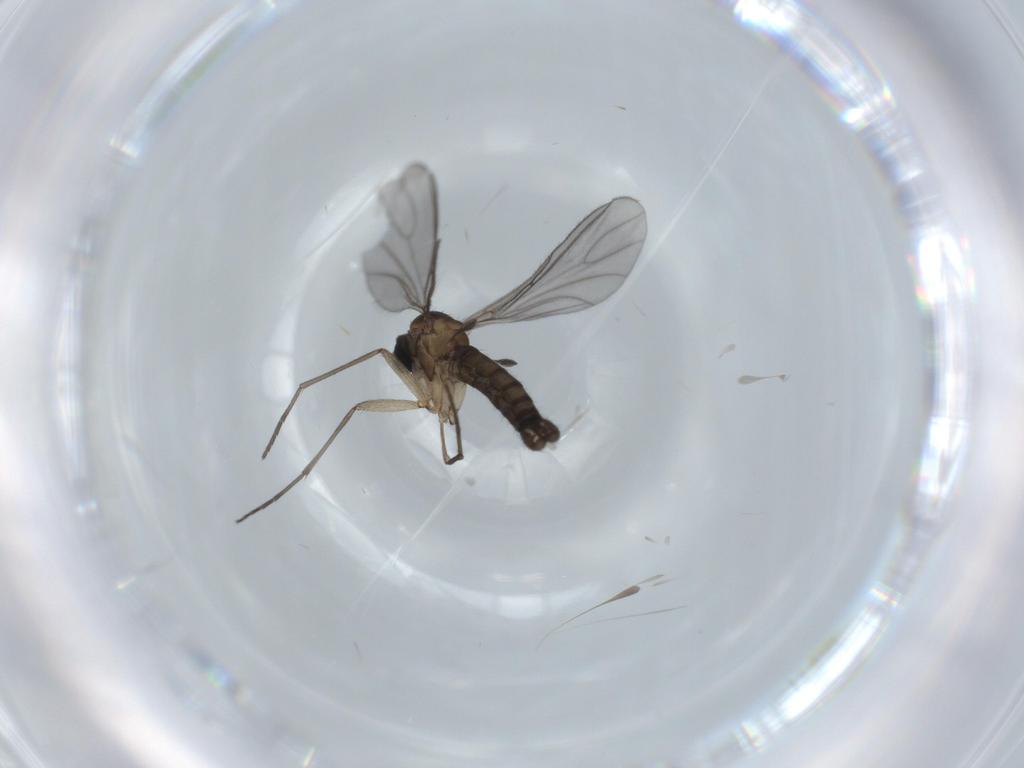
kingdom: Animalia
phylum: Arthropoda
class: Insecta
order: Diptera
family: Sciaridae
